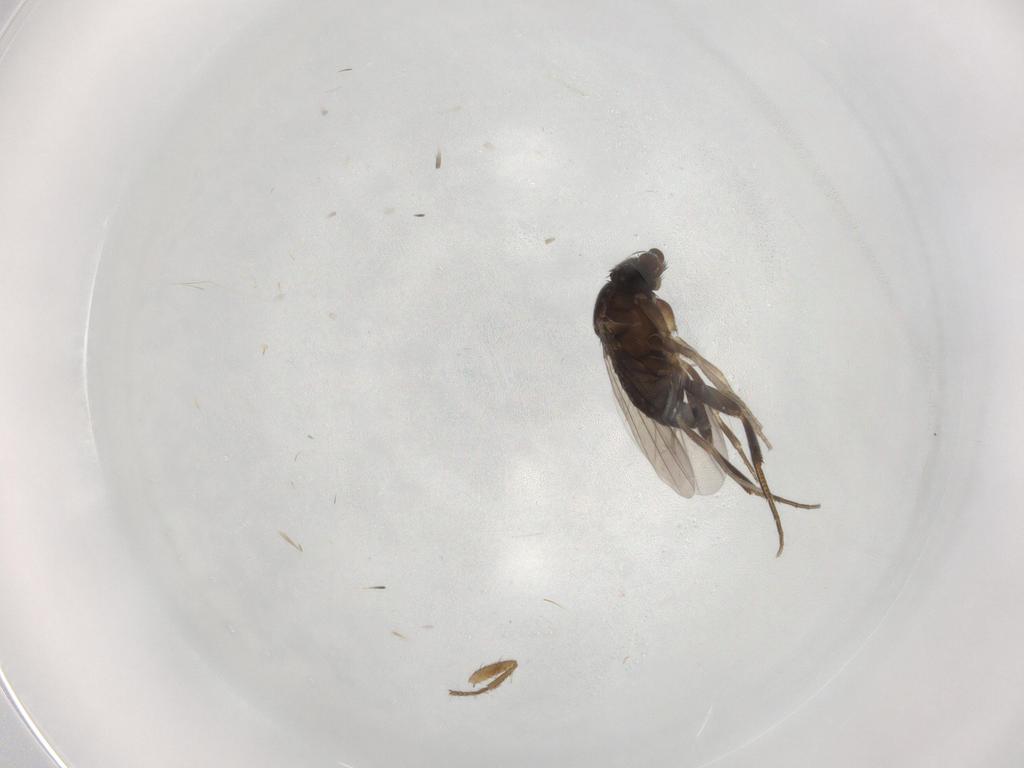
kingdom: Animalia
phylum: Arthropoda
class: Insecta
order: Diptera
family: Sphaeroceridae
